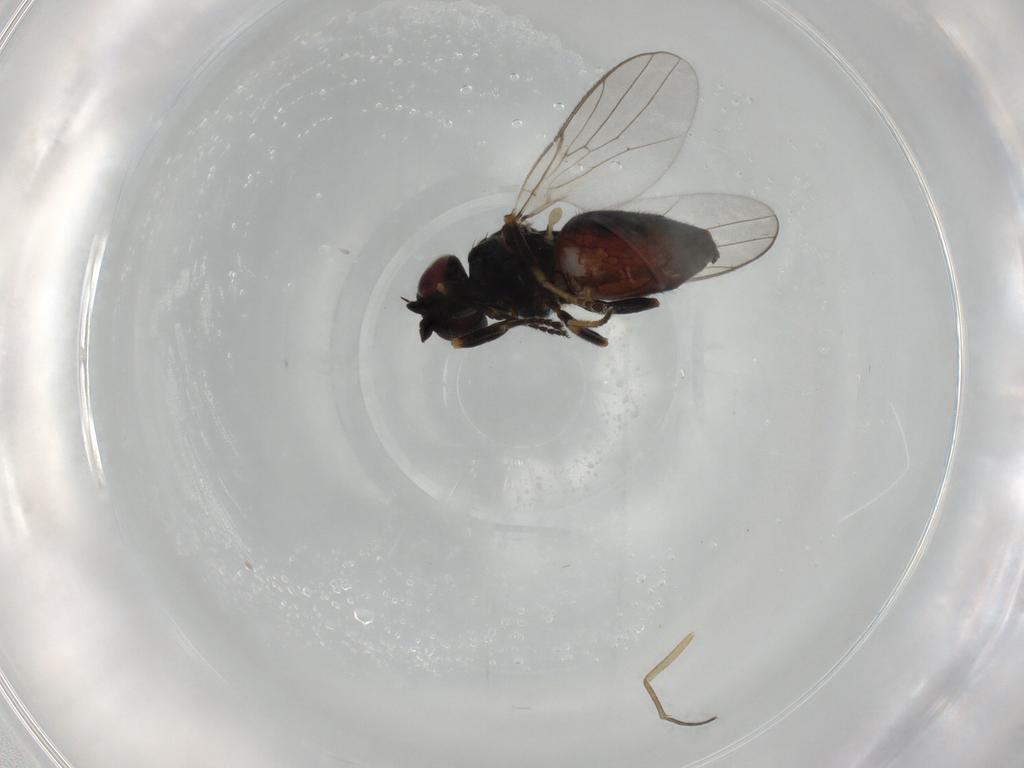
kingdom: Animalia
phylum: Arthropoda
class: Insecta
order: Diptera
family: Chloropidae
